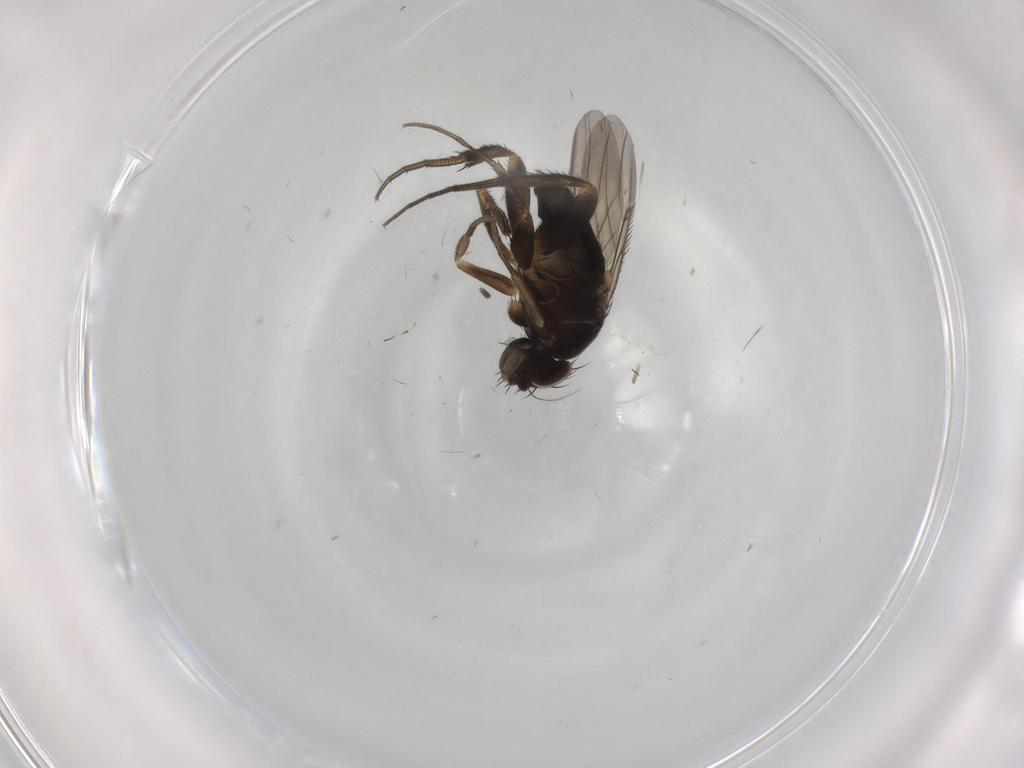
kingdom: Animalia
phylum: Arthropoda
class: Insecta
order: Diptera
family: Phoridae
